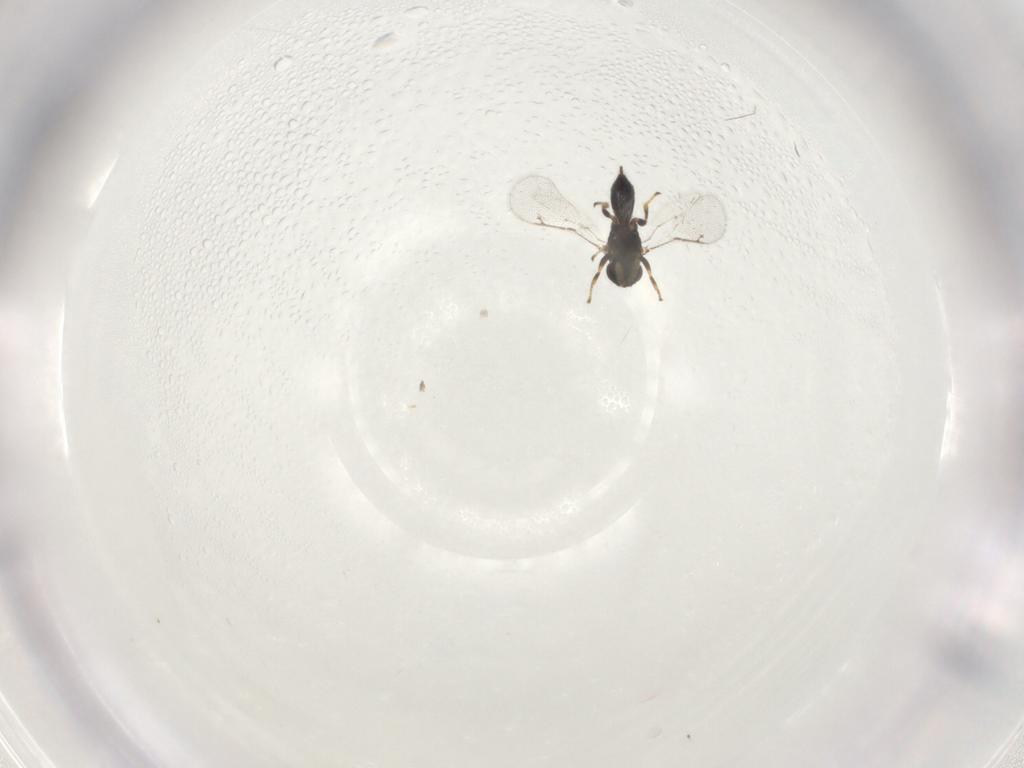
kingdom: Animalia
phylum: Arthropoda
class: Insecta
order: Hymenoptera
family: Pirenidae
